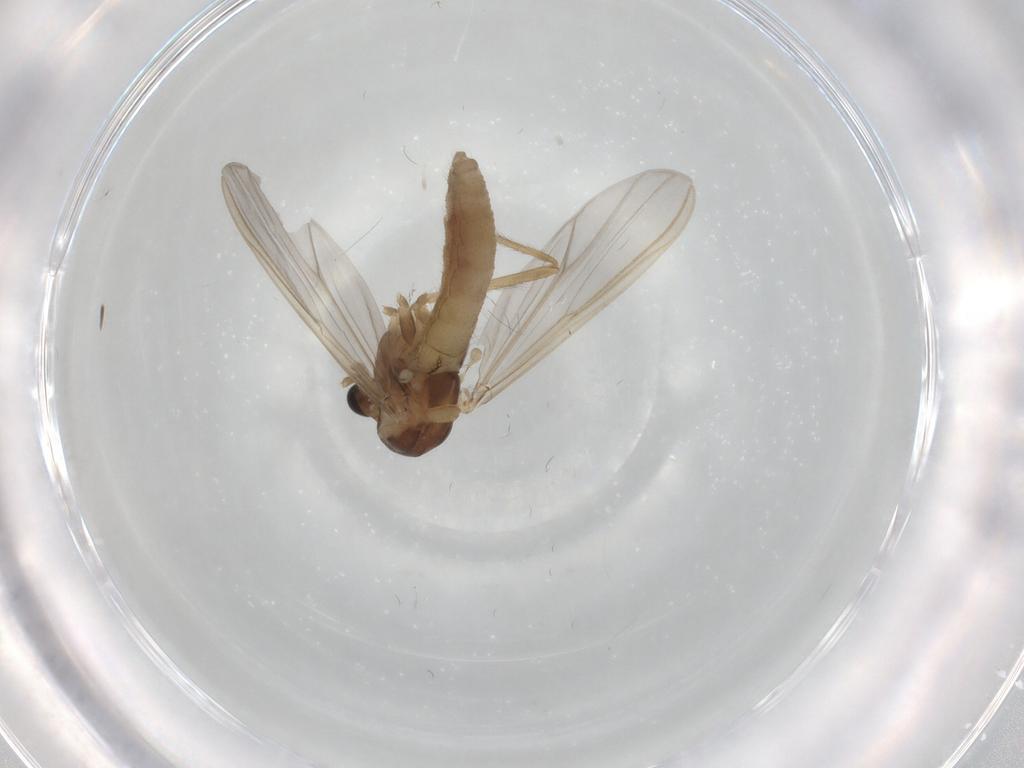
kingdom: Animalia
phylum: Arthropoda
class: Insecta
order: Diptera
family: Chironomidae
